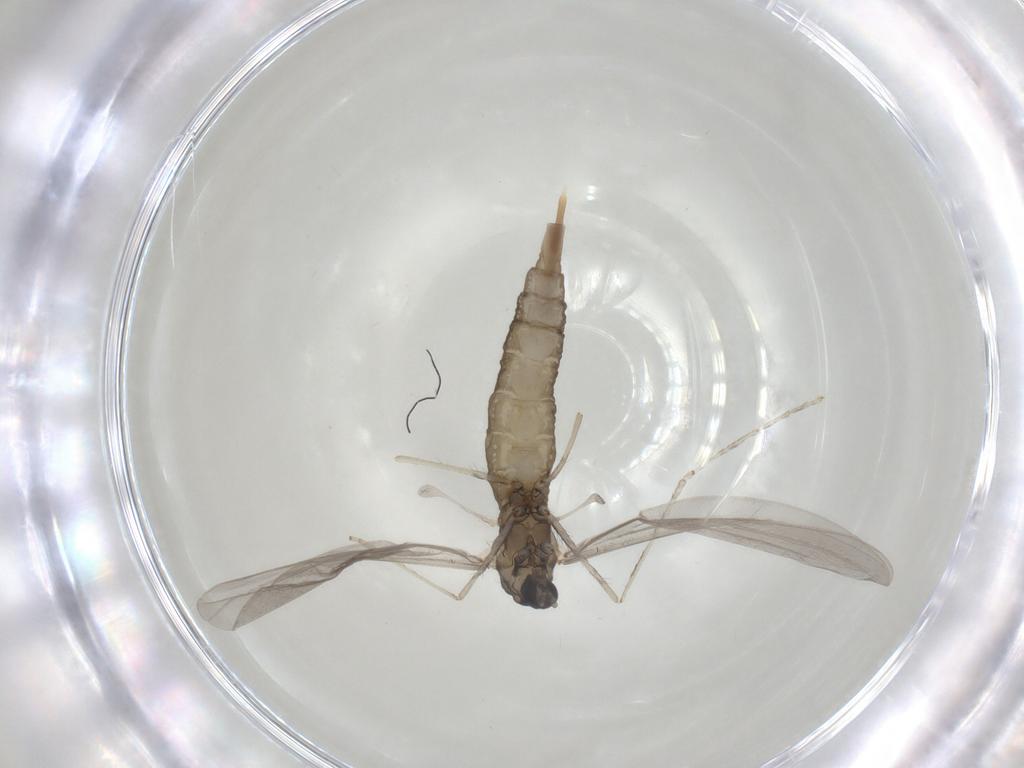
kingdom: Animalia
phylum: Arthropoda
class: Insecta
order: Diptera
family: Cecidomyiidae
